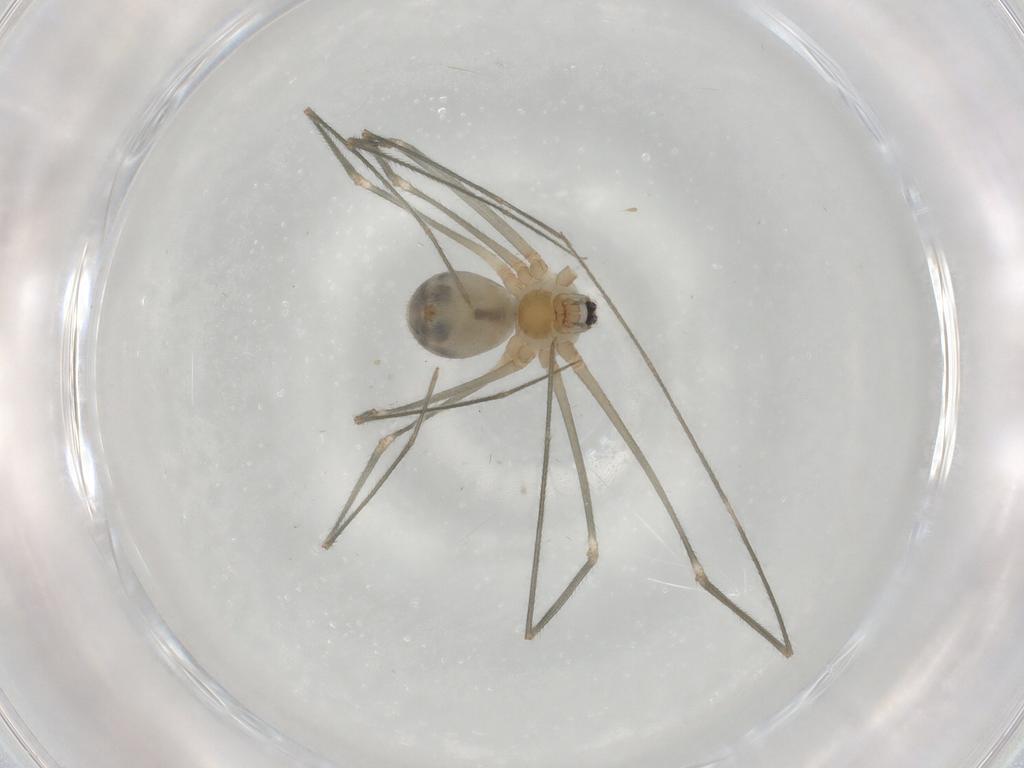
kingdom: Animalia
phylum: Arthropoda
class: Arachnida
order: Araneae
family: Pholcidae
